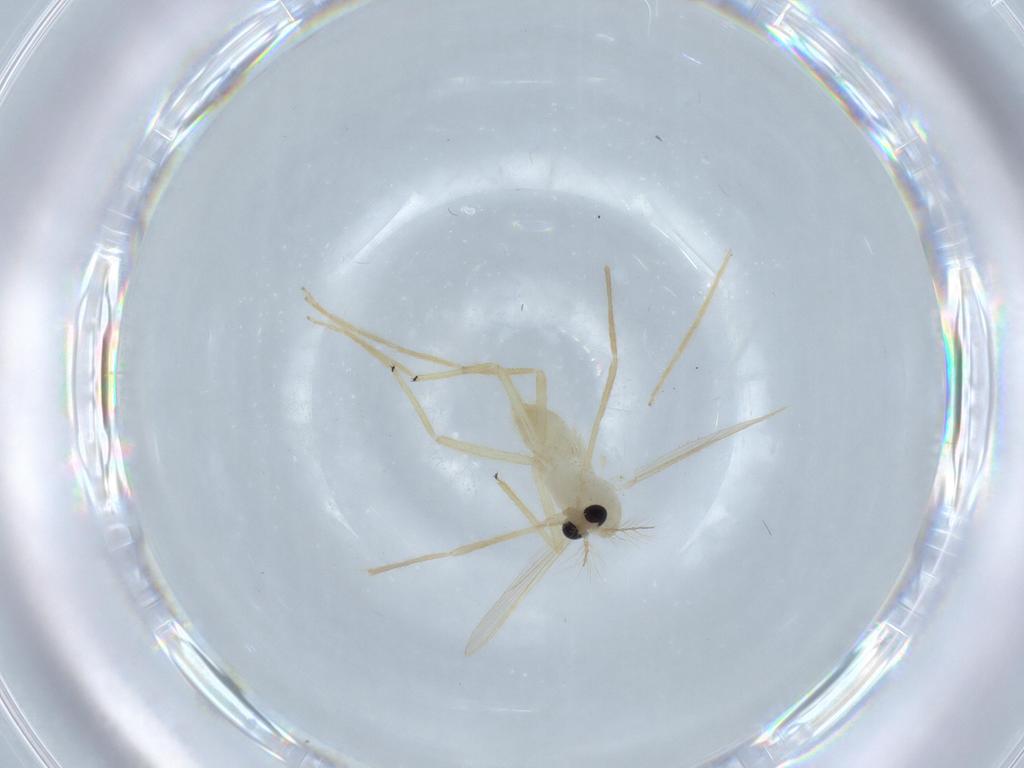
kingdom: Animalia
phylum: Arthropoda
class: Insecta
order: Diptera
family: Chironomidae
